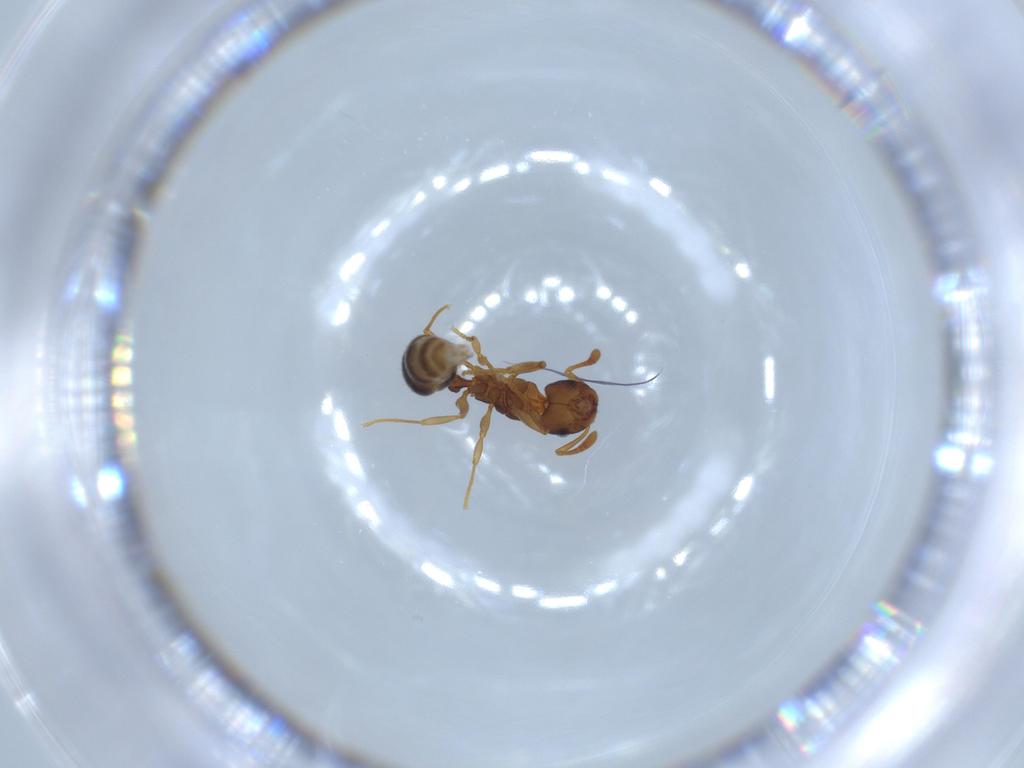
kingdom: Animalia
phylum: Arthropoda
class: Insecta
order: Hymenoptera
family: Formicidae
